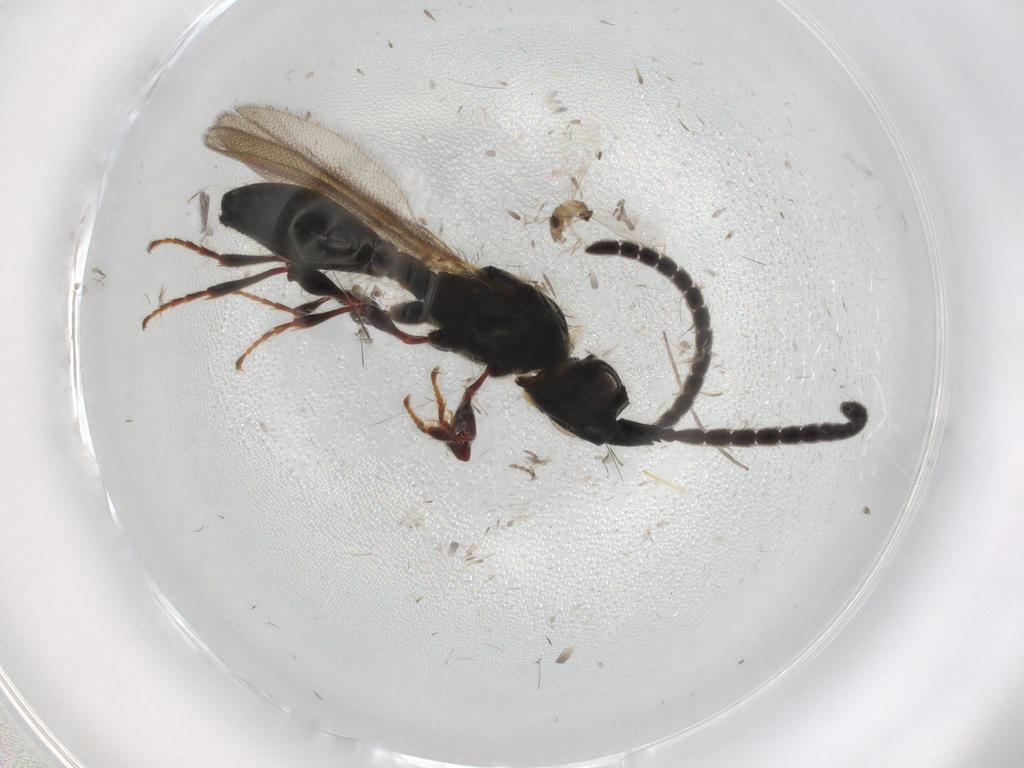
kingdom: Animalia
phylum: Arthropoda
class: Insecta
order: Diptera
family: Cecidomyiidae
